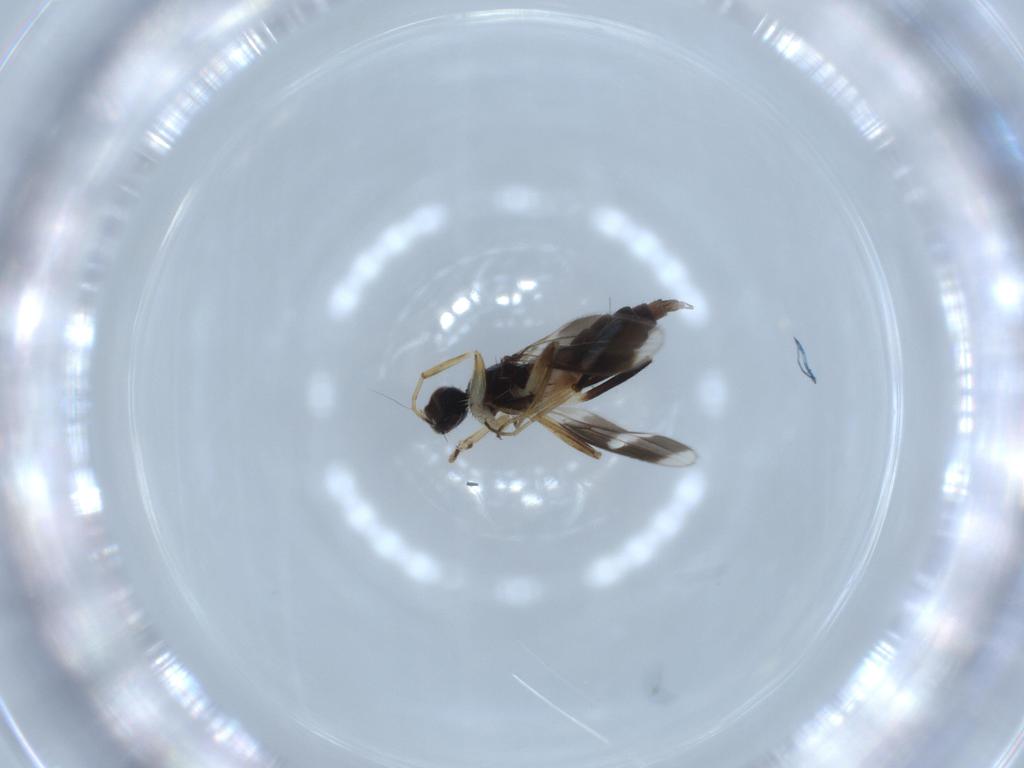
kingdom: Animalia
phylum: Arthropoda
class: Insecta
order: Diptera
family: Hybotidae
